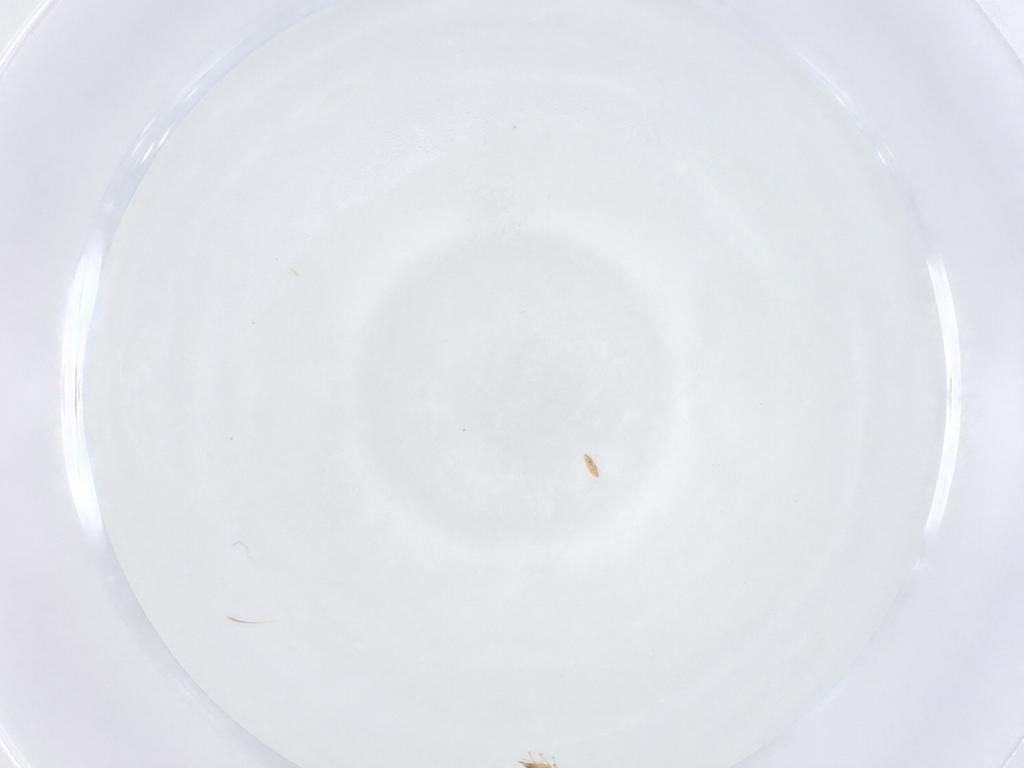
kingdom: Animalia
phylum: Arthropoda
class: Insecta
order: Hymenoptera
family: Mymaridae
